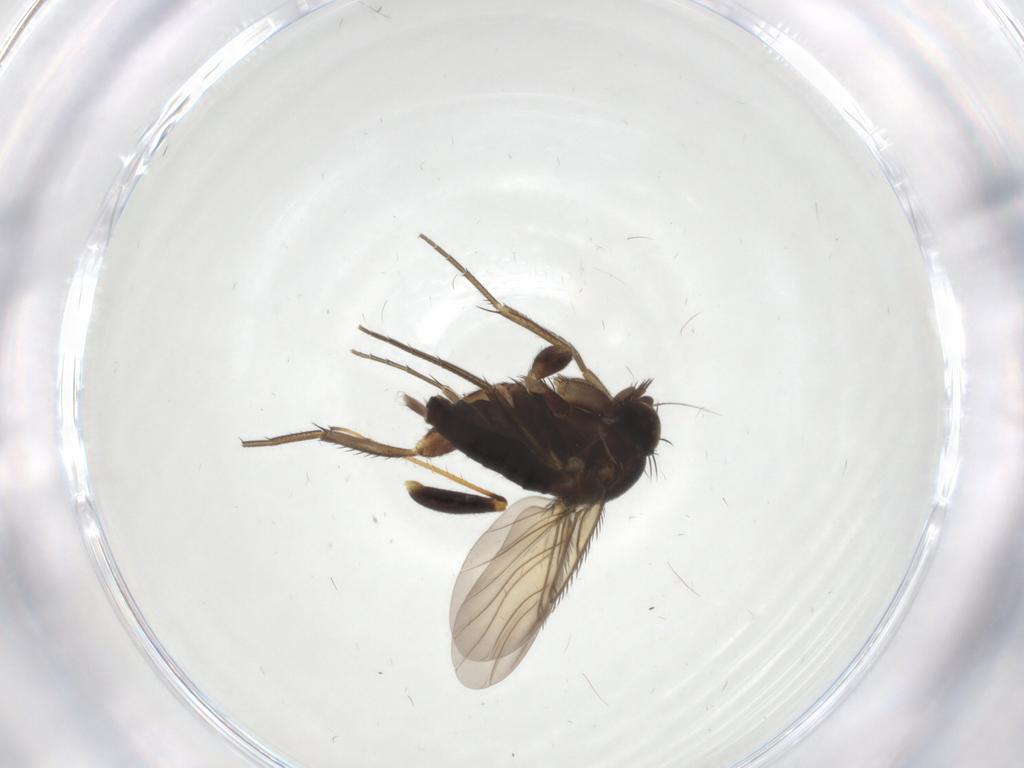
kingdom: Animalia
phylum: Arthropoda
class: Insecta
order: Diptera
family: Phoridae
